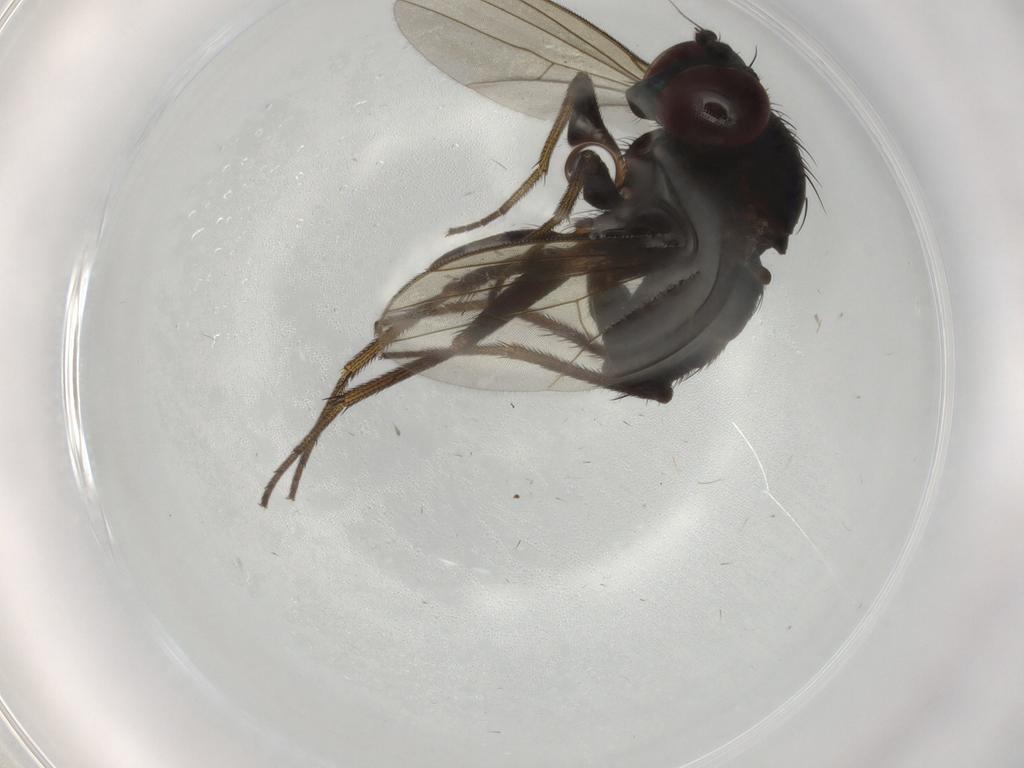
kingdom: Animalia
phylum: Arthropoda
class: Insecta
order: Diptera
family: Dolichopodidae
